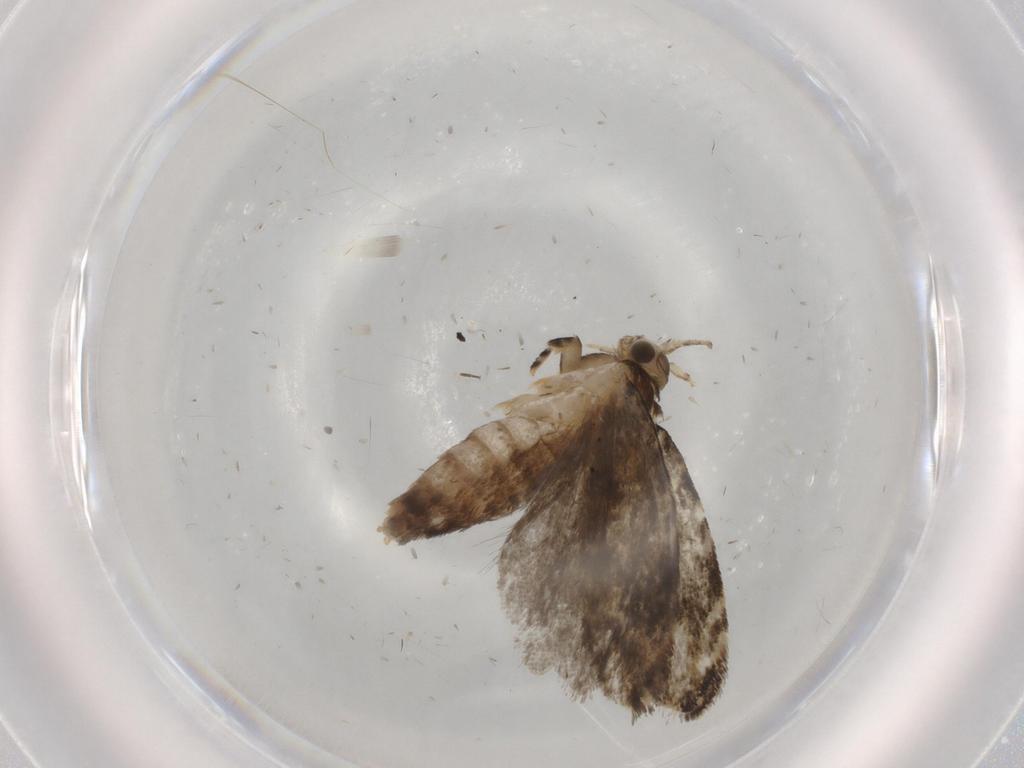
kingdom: Animalia
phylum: Arthropoda
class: Insecta
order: Lepidoptera
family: Tineidae
